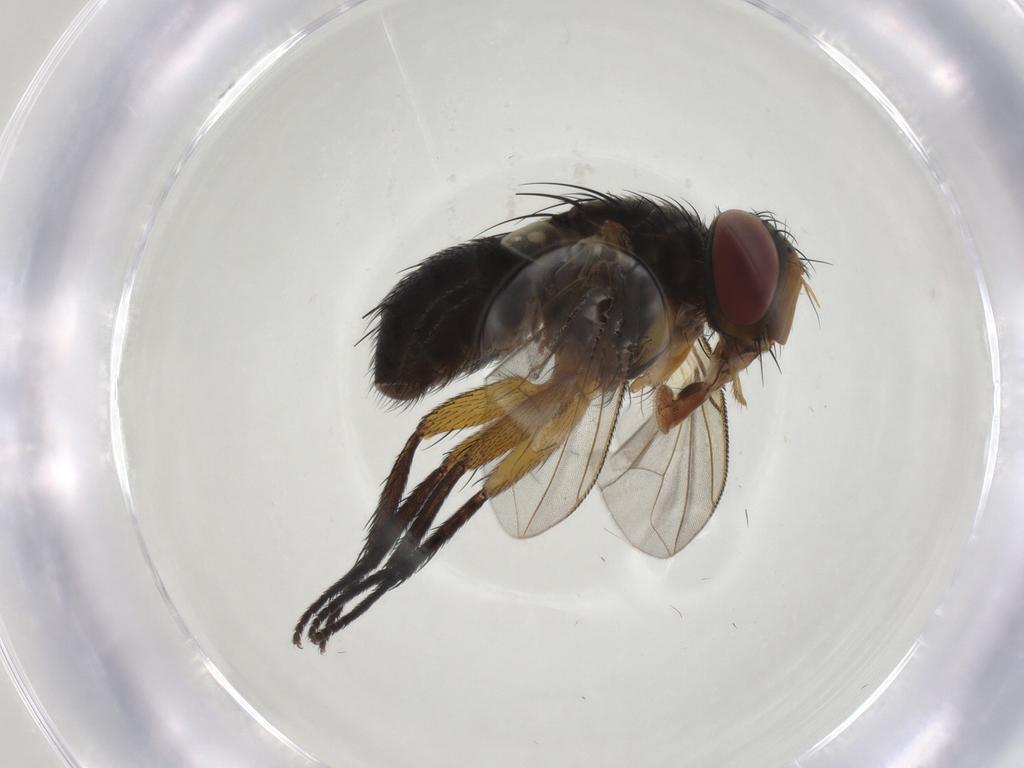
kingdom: Animalia
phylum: Arthropoda
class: Insecta
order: Diptera
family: Tachinidae
